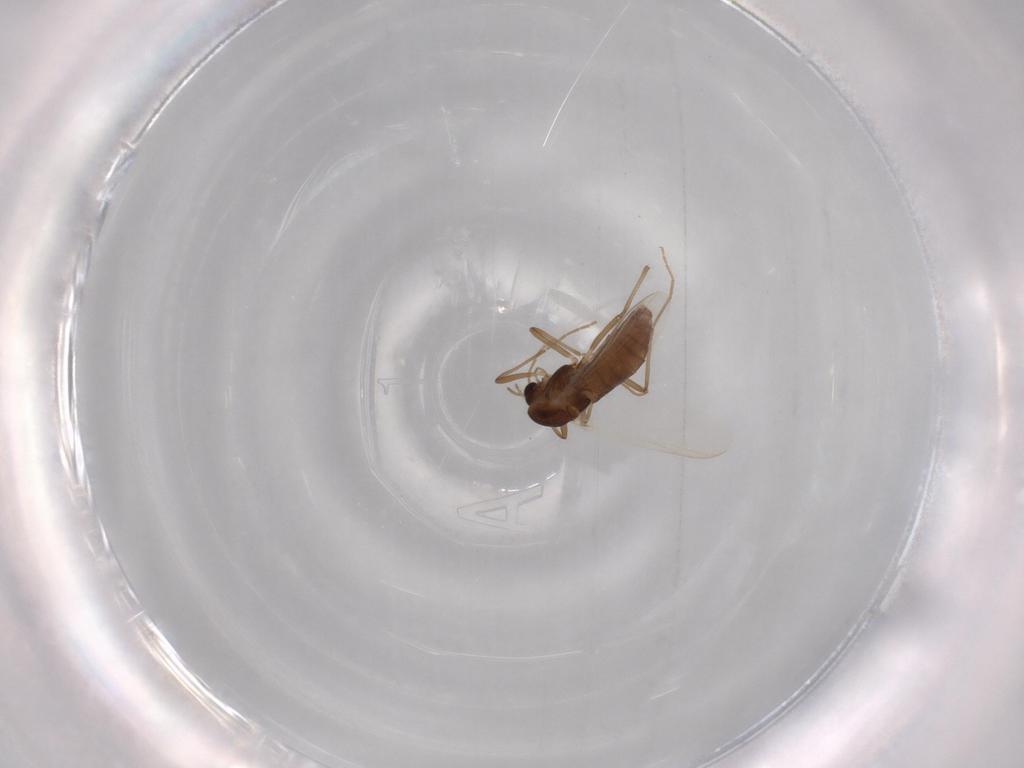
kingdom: Animalia
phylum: Arthropoda
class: Insecta
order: Diptera
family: Chironomidae
